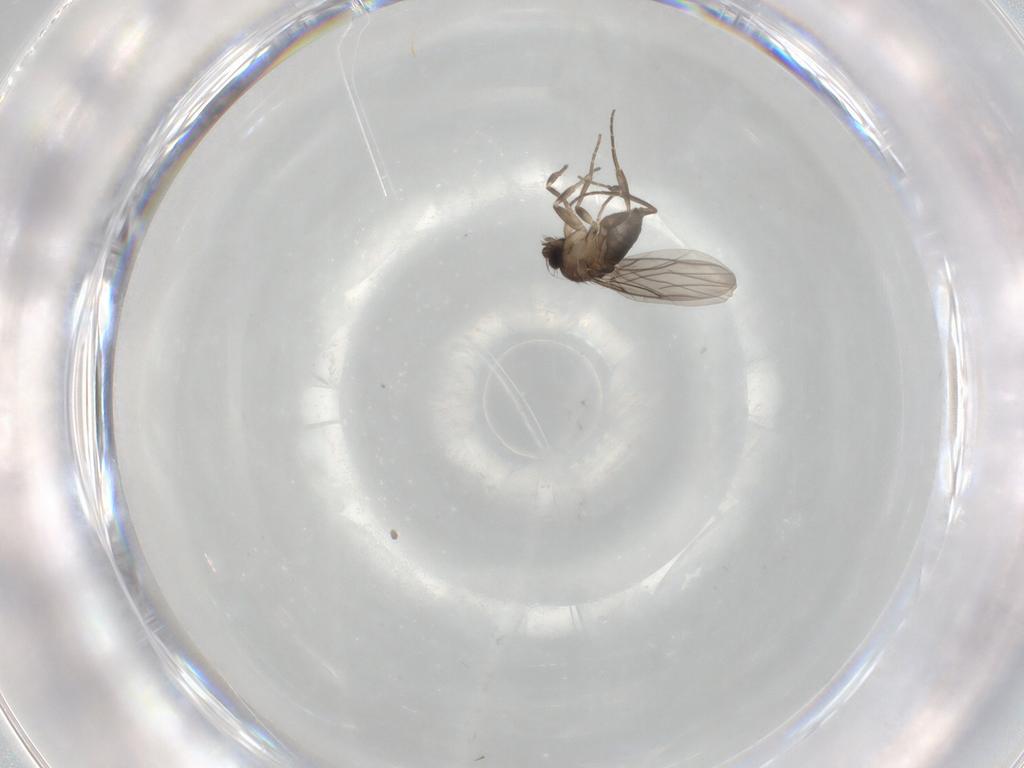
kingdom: Animalia
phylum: Arthropoda
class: Insecta
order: Diptera
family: Phoridae
